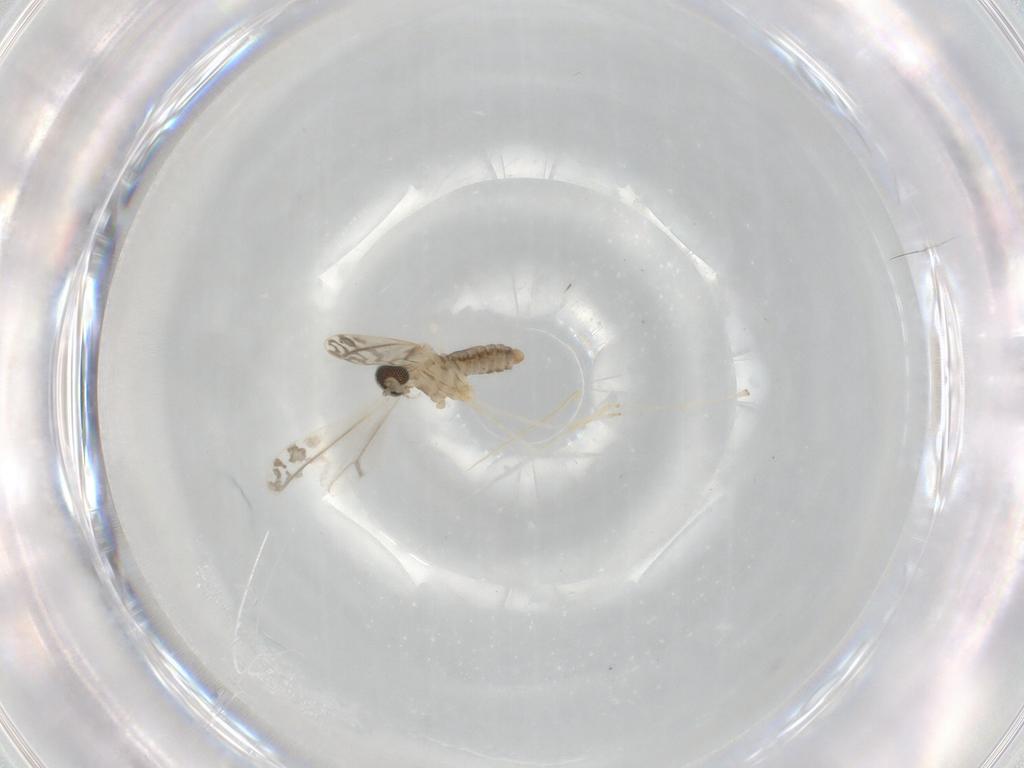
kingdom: Animalia
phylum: Arthropoda
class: Insecta
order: Diptera
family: Cecidomyiidae
